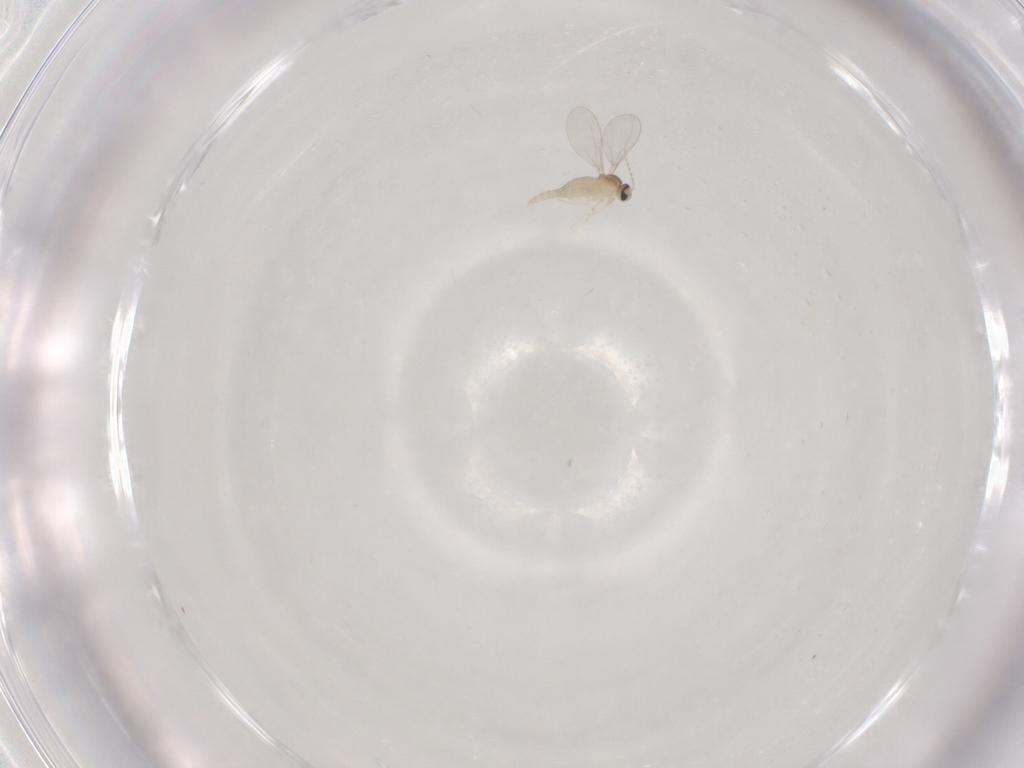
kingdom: Animalia
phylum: Arthropoda
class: Insecta
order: Diptera
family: Cecidomyiidae
